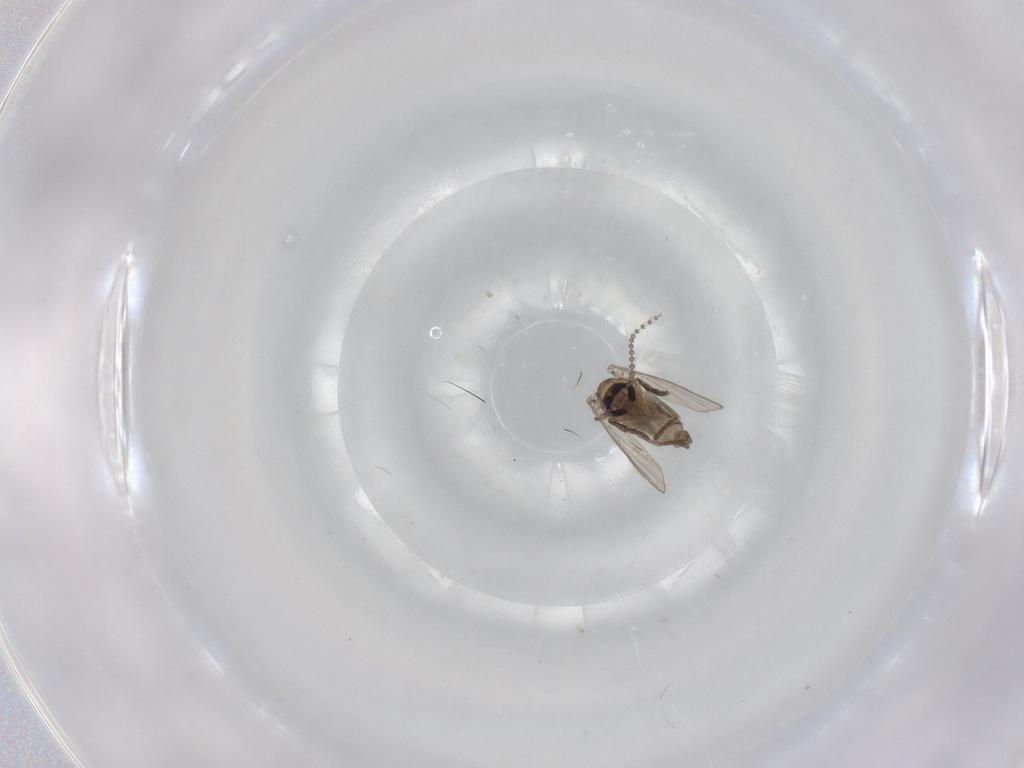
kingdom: Animalia
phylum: Arthropoda
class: Insecta
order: Diptera
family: Psychodidae
